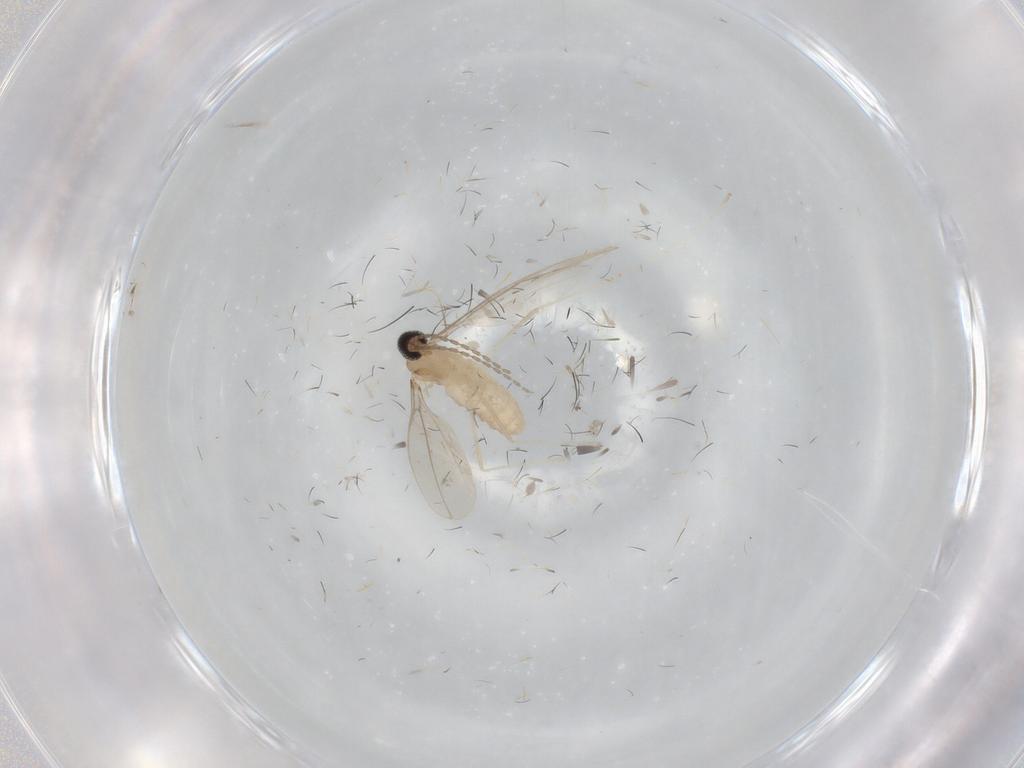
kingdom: Animalia
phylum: Arthropoda
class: Insecta
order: Diptera
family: Cecidomyiidae
